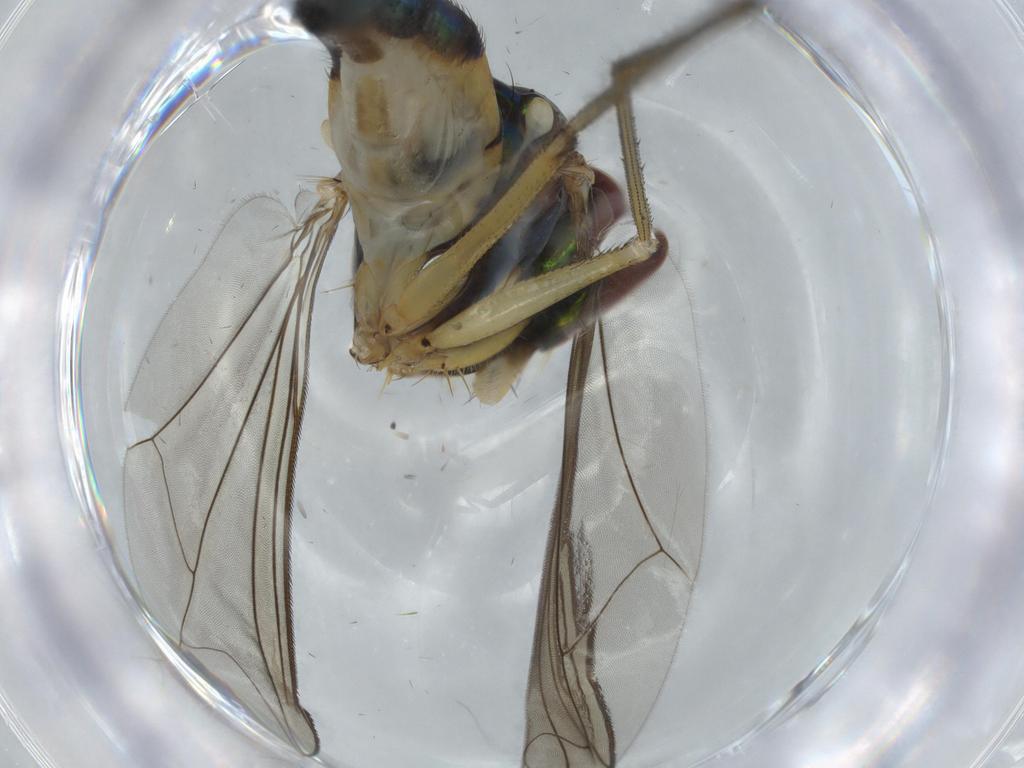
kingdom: Animalia
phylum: Arthropoda
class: Insecta
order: Diptera
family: Dolichopodidae
